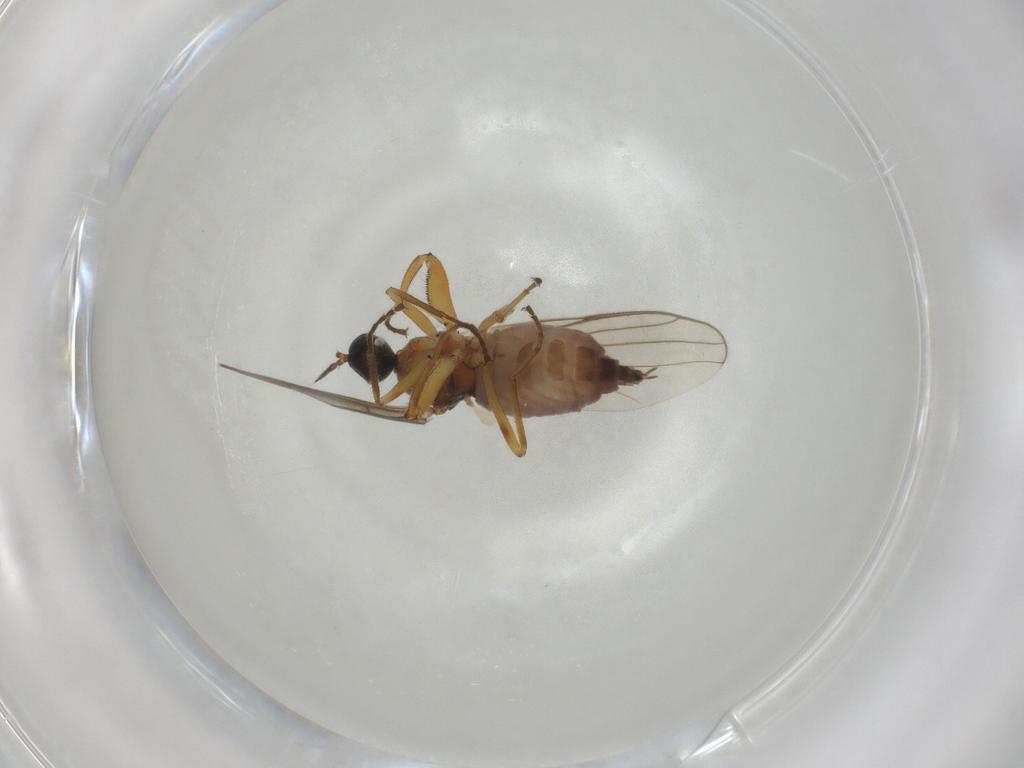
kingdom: Animalia
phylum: Arthropoda
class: Insecta
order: Diptera
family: Hybotidae
